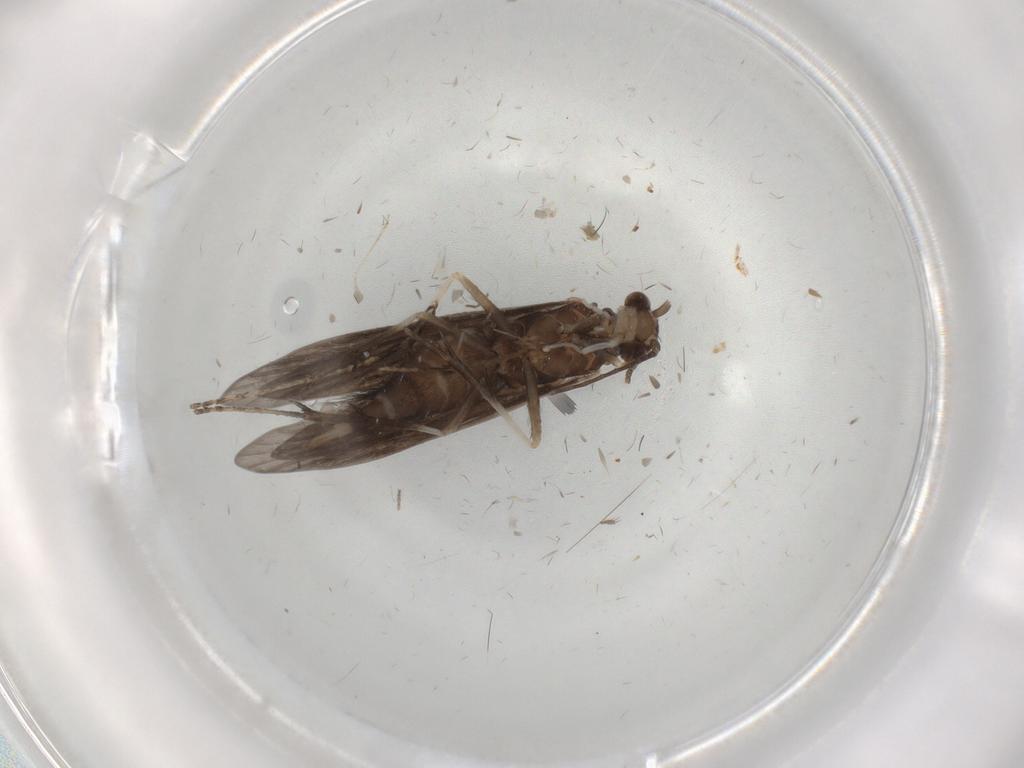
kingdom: Animalia
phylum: Arthropoda
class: Insecta
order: Trichoptera
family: Xiphocentronidae
